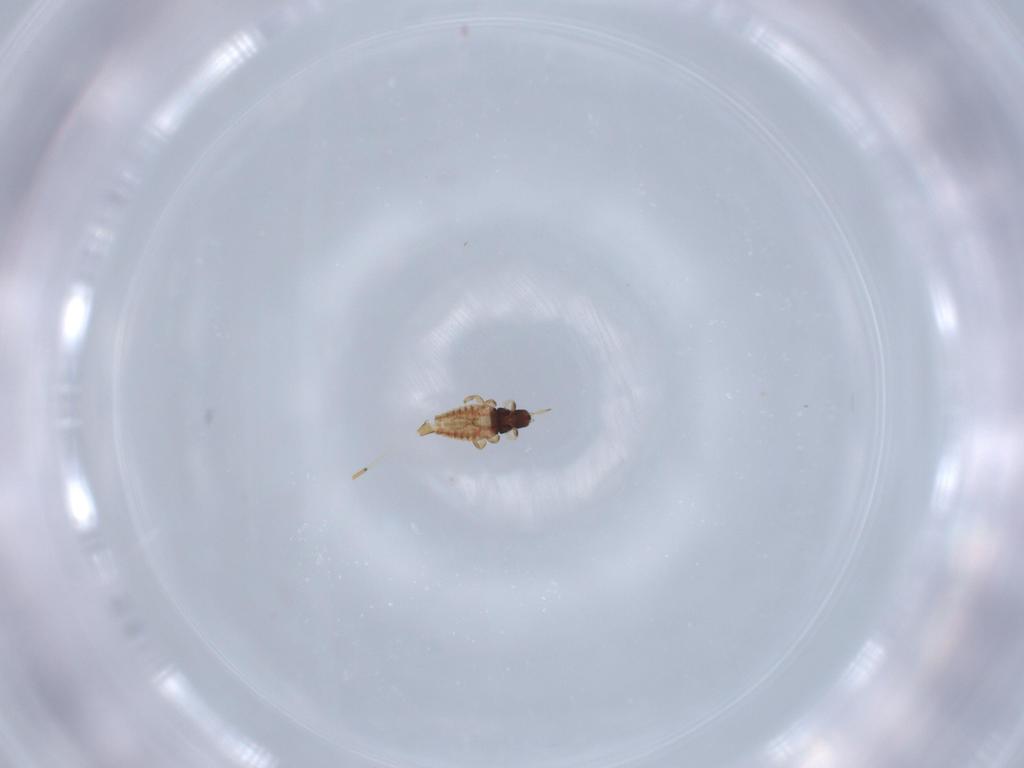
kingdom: Animalia
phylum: Arthropoda
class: Insecta
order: Thysanoptera
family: Phlaeothripidae
